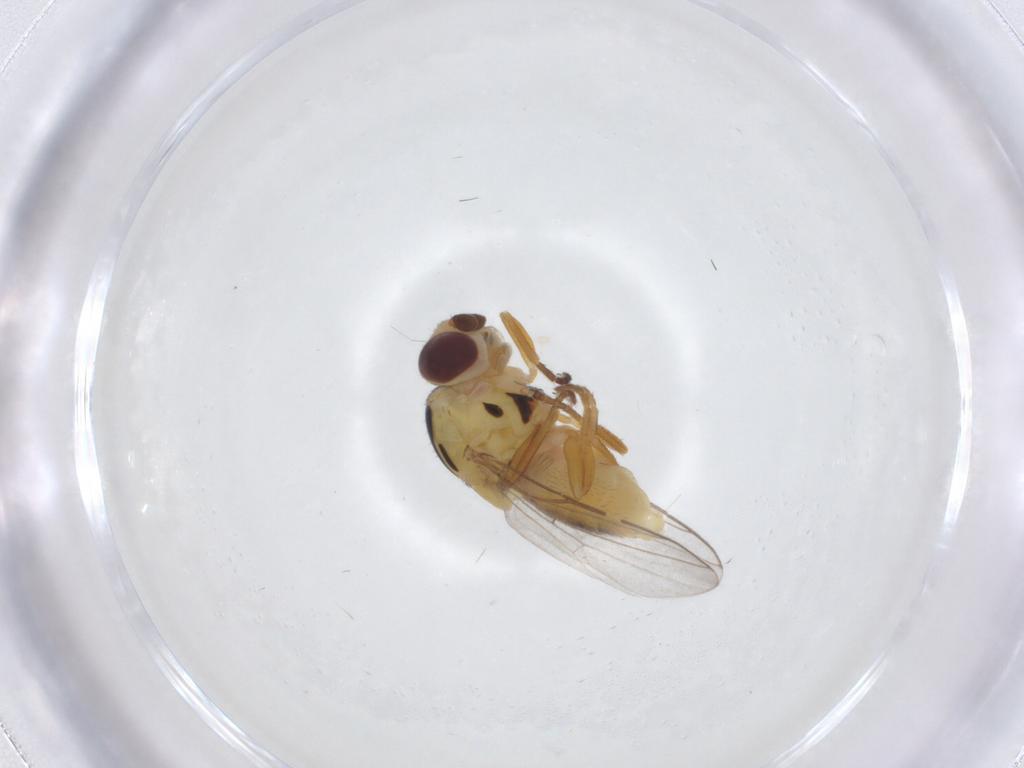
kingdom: Animalia
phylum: Arthropoda
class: Insecta
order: Diptera
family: Chloropidae
